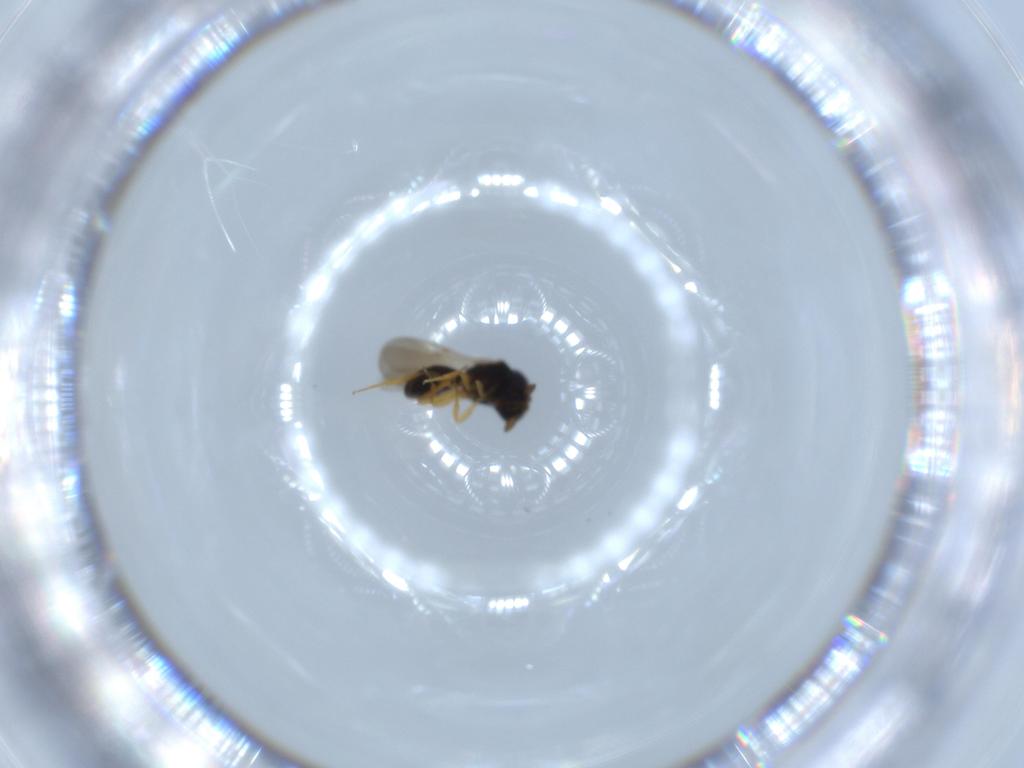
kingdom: Animalia
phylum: Arthropoda
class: Insecta
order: Hymenoptera
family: Scelionidae
